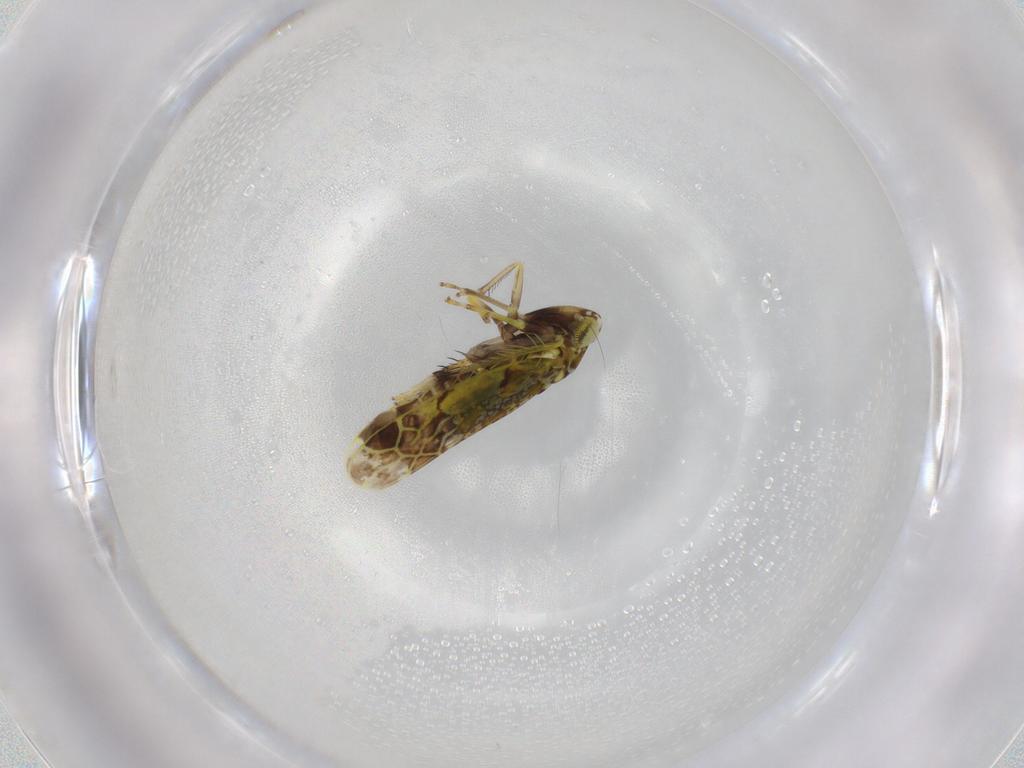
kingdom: Animalia
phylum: Arthropoda
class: Insecta
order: Hemiptera
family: Cicadellidae
